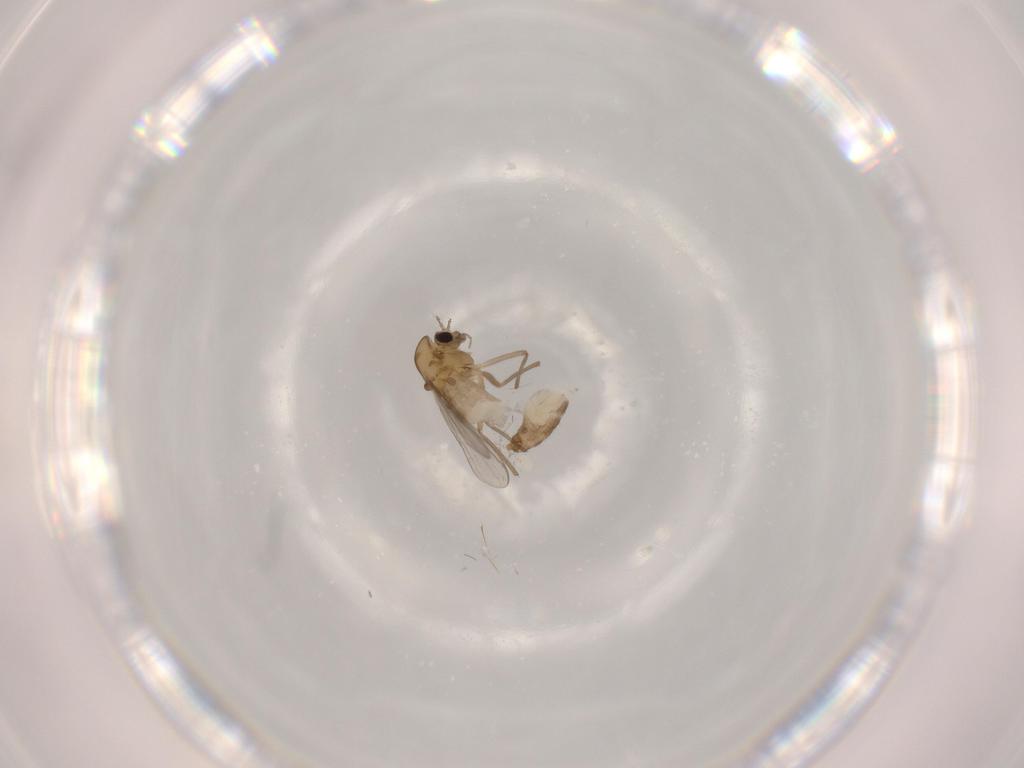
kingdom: Animalia
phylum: Arthropoda
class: Insecta
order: Diptera
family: Chironomidae
